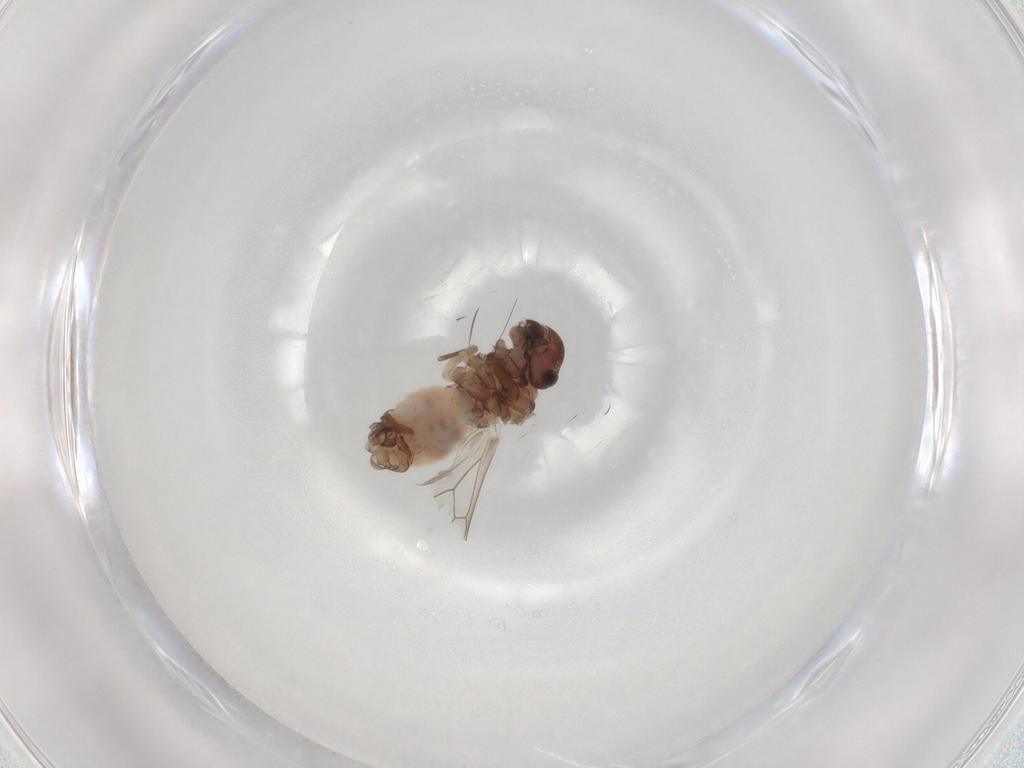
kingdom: Animalia
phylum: Arthropoda
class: Insecta
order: Psocodea
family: Peripsocidae
